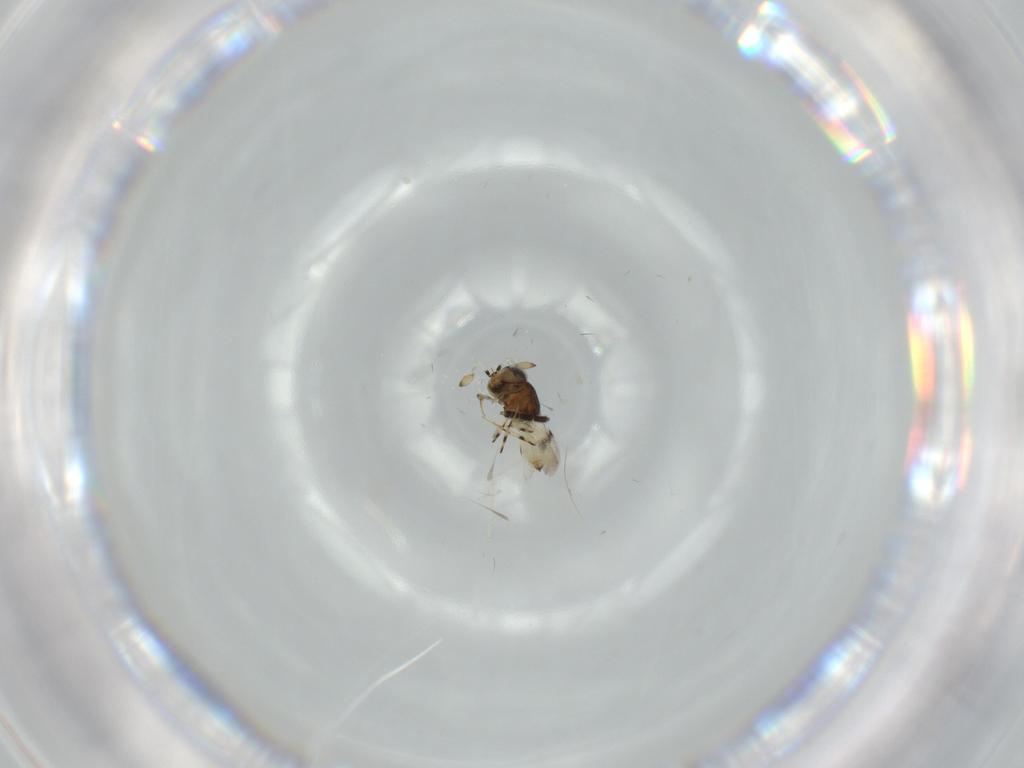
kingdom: Animalia
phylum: Arthropoda
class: Insecta
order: Hymenoptera
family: Scelionidae
